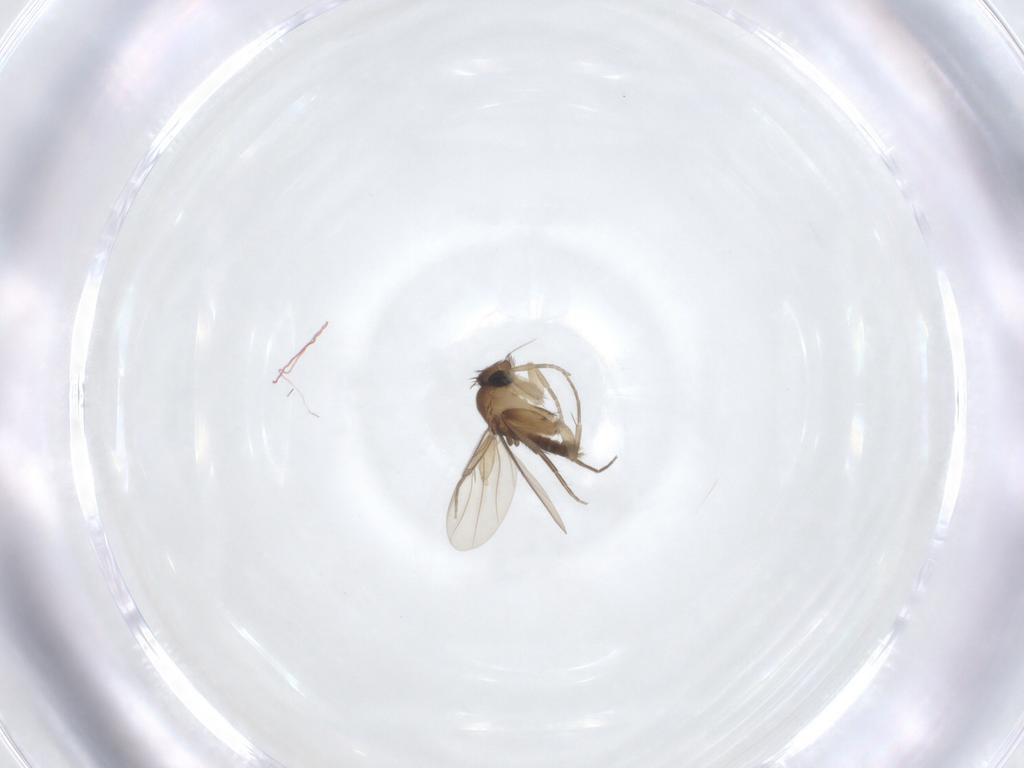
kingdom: Animalia
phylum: Arthropoda
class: Insecta
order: Diptera
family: Phoridae
